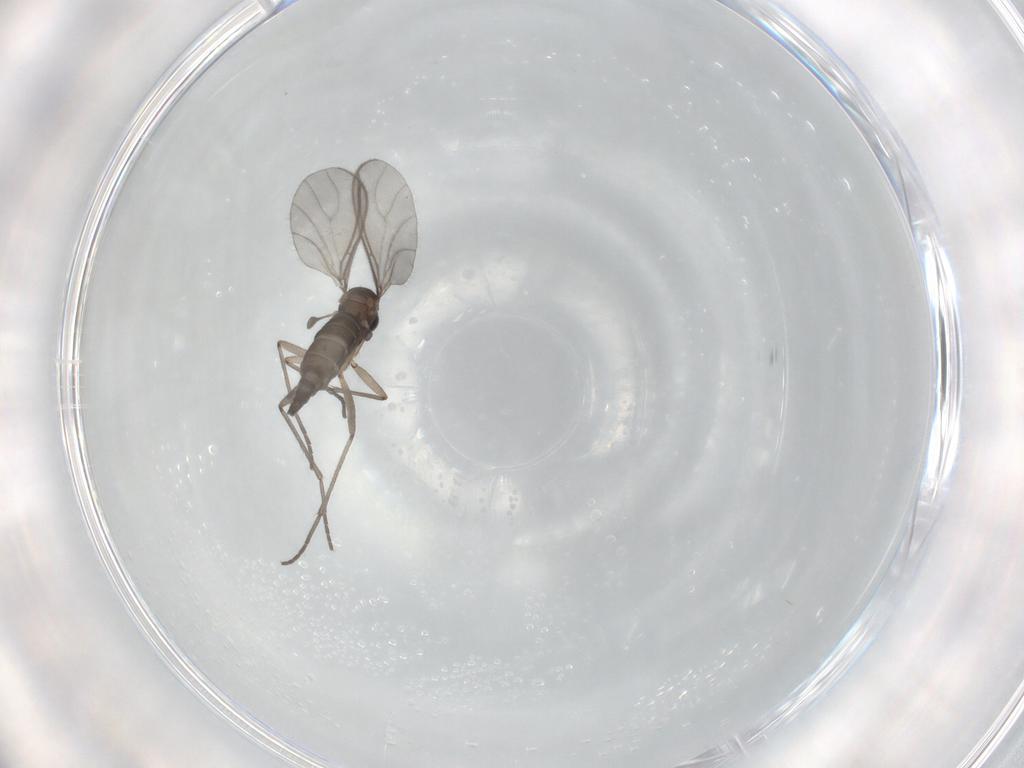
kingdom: Animalia
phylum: Arthropoda
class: Insecta
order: Diptera
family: Sciaridae
